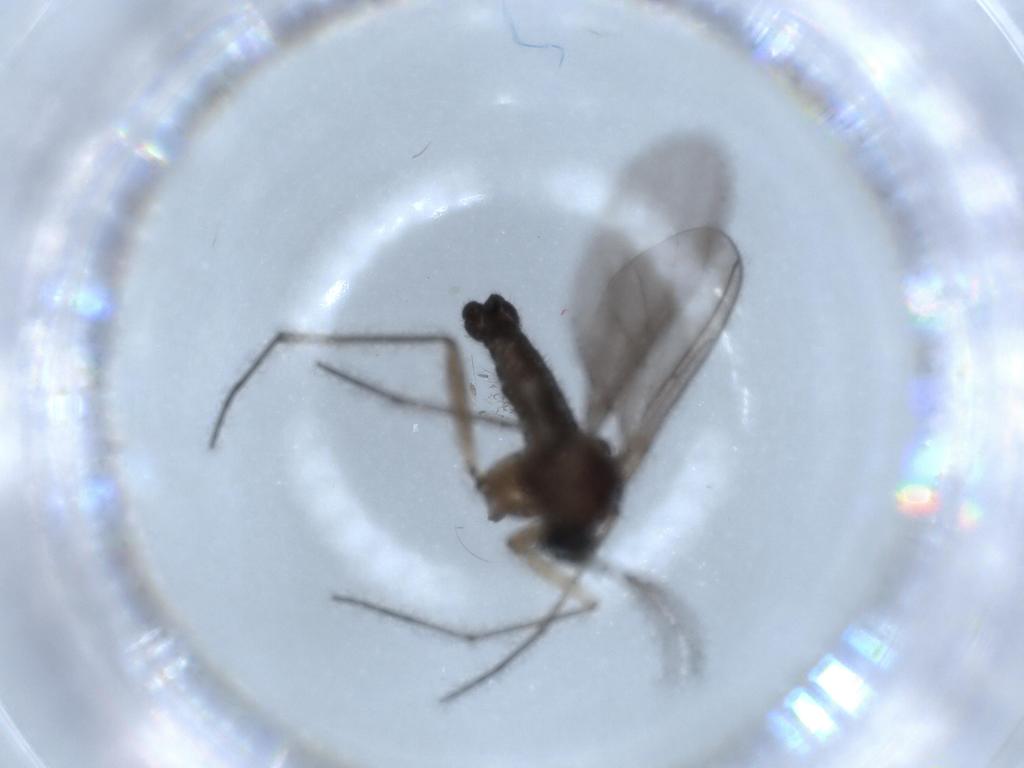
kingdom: Animalia
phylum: Arthropoda
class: Insecta
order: Diptera
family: Sciaridae
